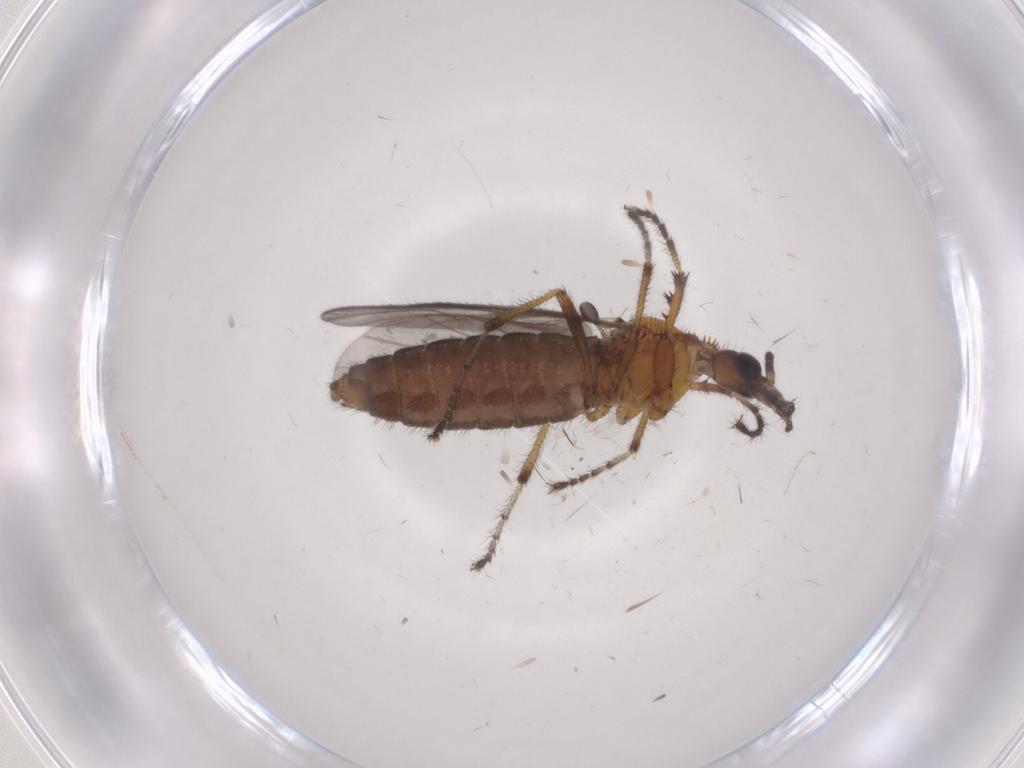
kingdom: Animalia
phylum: Arthropoda
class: Insecta
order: Diptera
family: Bibionidae
